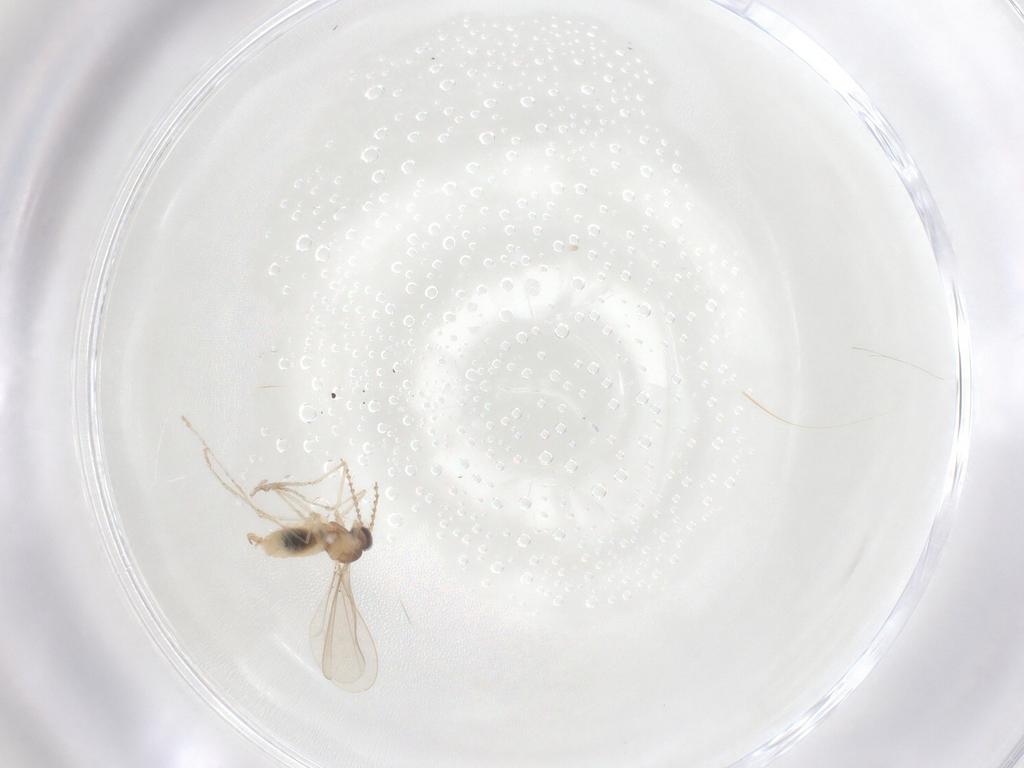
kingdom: Animalia
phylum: Arthropoda
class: Insecta
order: Diptera
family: Cecidomyiidae
